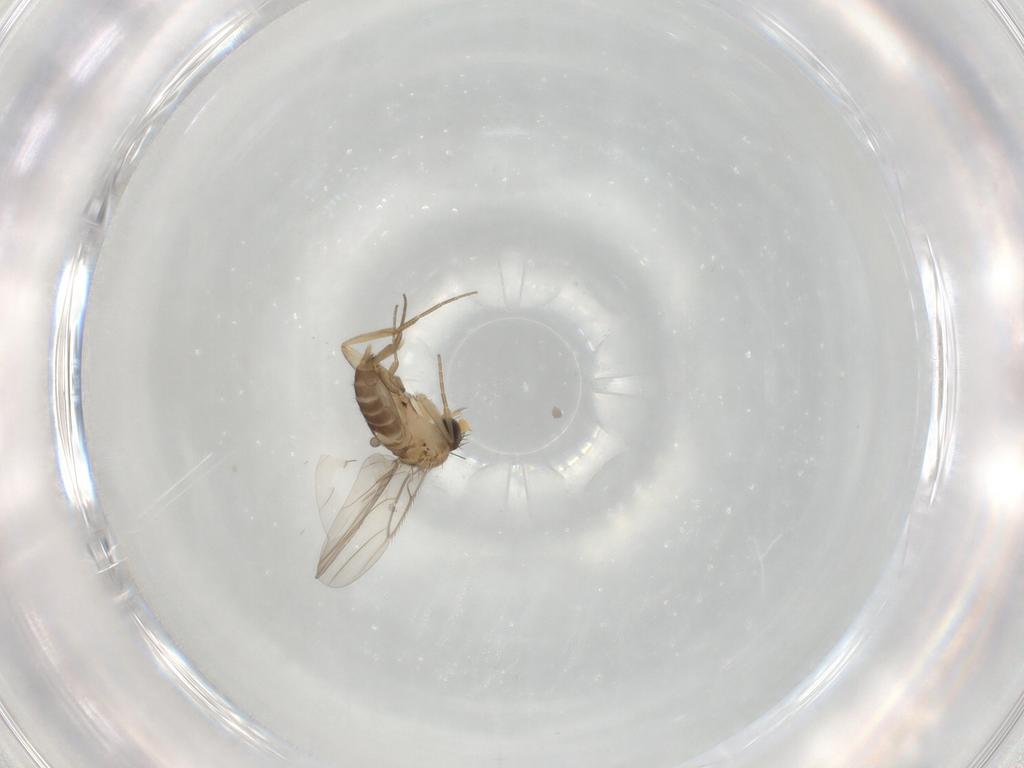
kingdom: Animalia
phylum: Arthropoda
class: Insecta
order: Diptera
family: Phoridae
